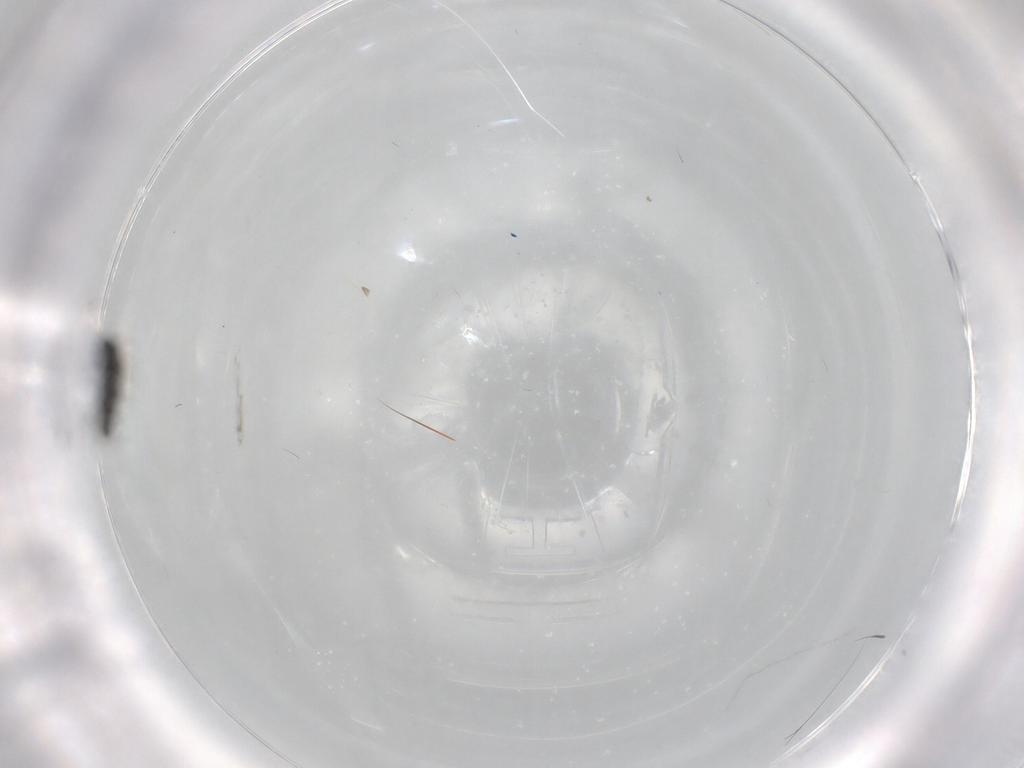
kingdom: Animalia
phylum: Arthropoda
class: Insecta
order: Hymenoptera
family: Scelionidae
